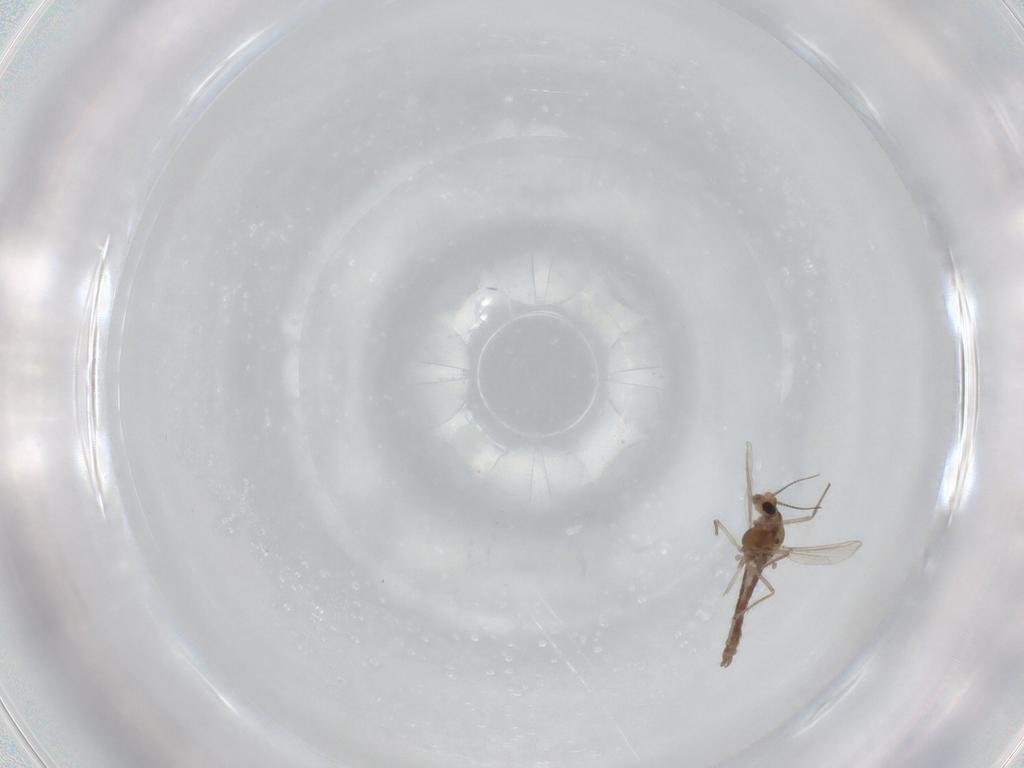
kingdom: Animalia
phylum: Arthropoda
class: Insecta
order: Diptera
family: Chironomidae
